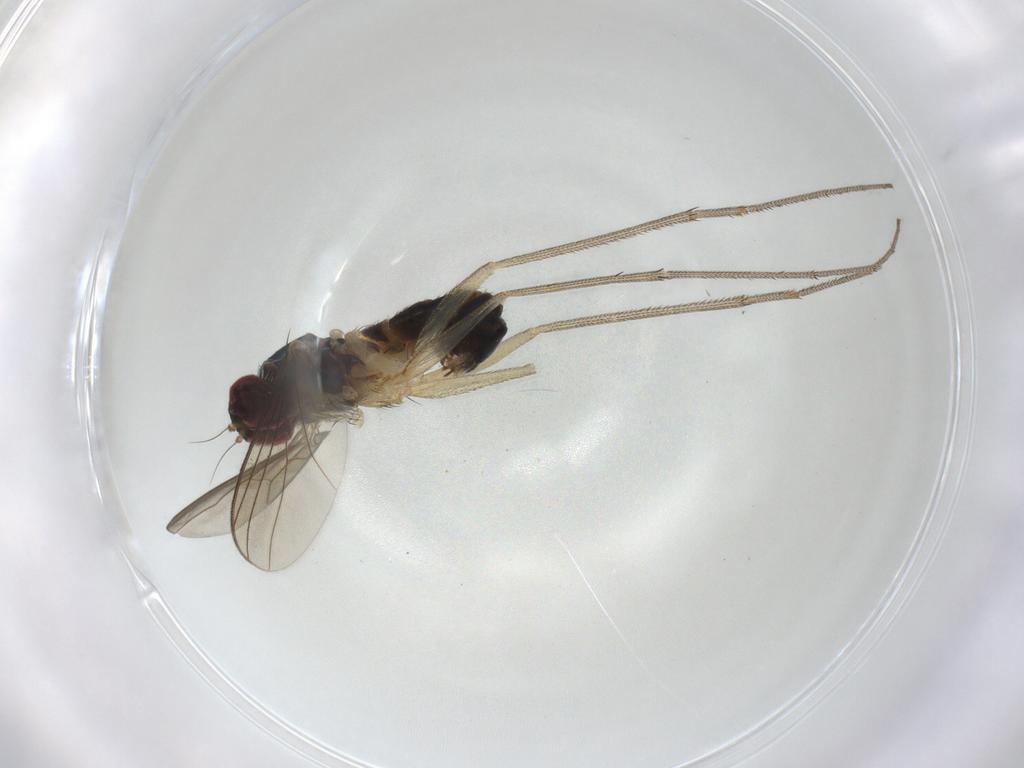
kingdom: Animalia
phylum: Arthropoda
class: Insecta
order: Diptera
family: Dolichopodidae
